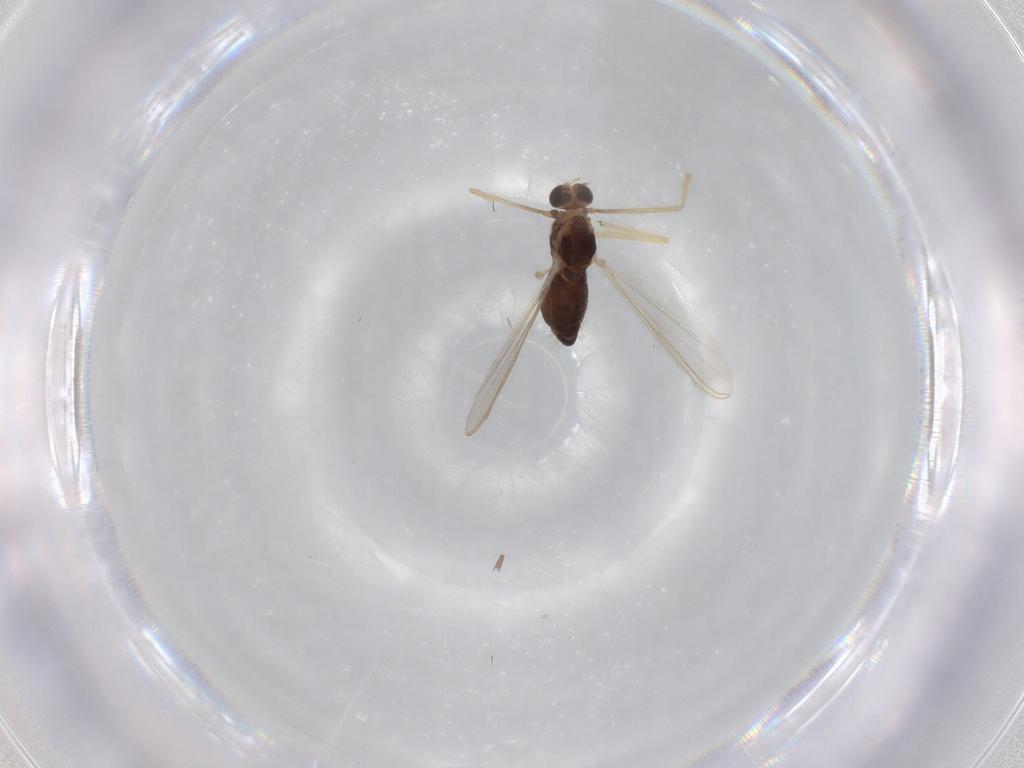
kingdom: Animalia
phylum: Arthropoda
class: Insecta
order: Diptera
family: Chironomidae
